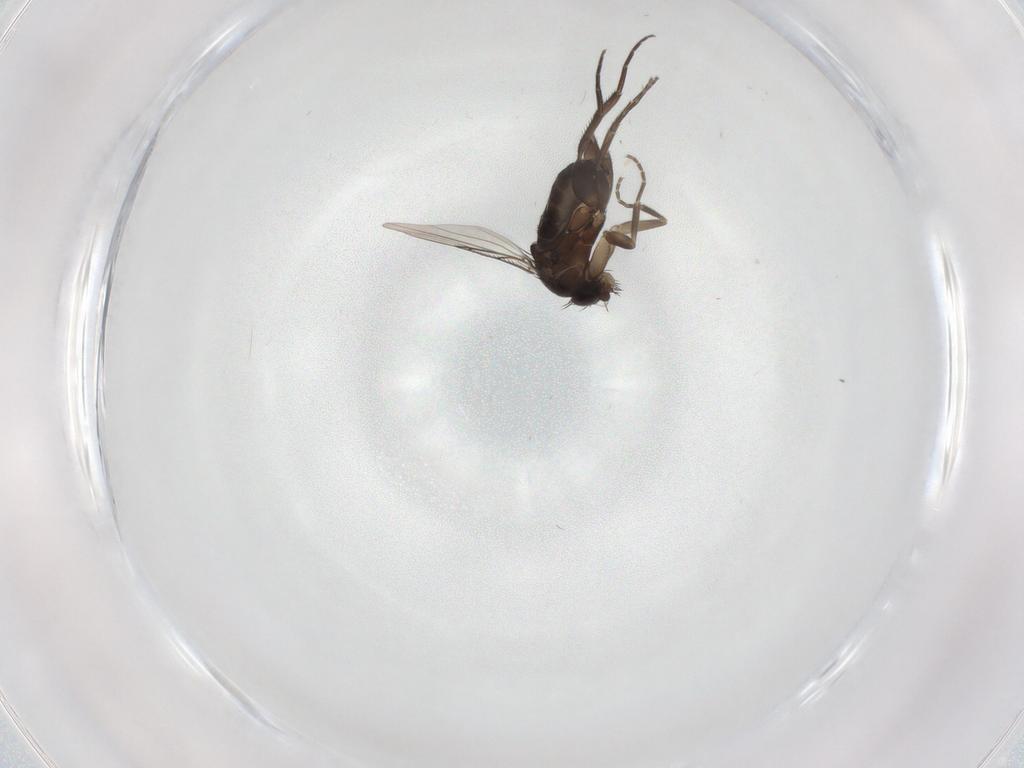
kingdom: Animalia
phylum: Arthropoda
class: Insecta
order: Diptera
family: Phoridae
